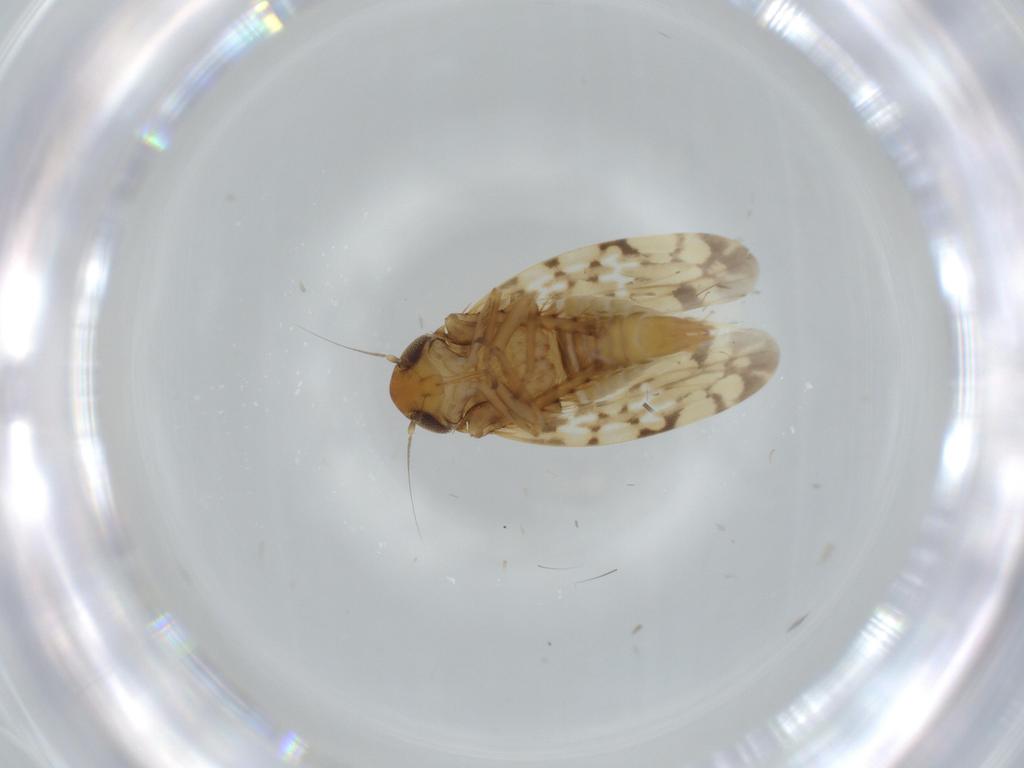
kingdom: Animalia
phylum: Arthropoda
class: Insecta
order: Hemiptera
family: Cicadellidae
